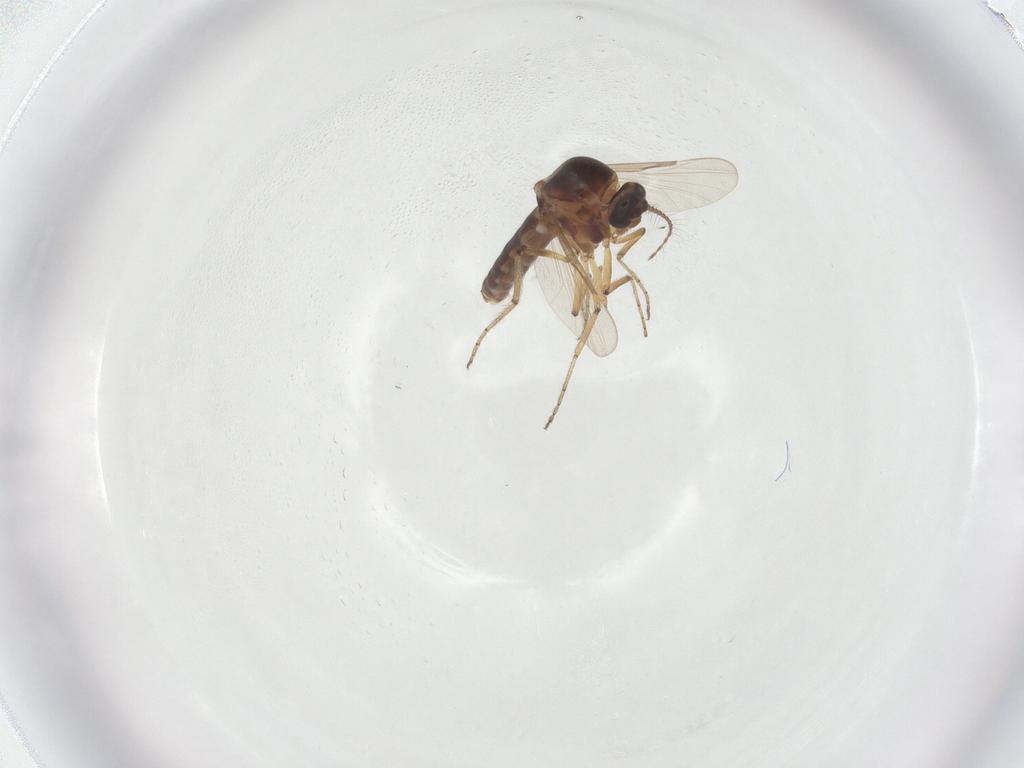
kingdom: Animalia
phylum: Arthropoda
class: Insecta
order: Diptera
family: Ceratopogonidae
